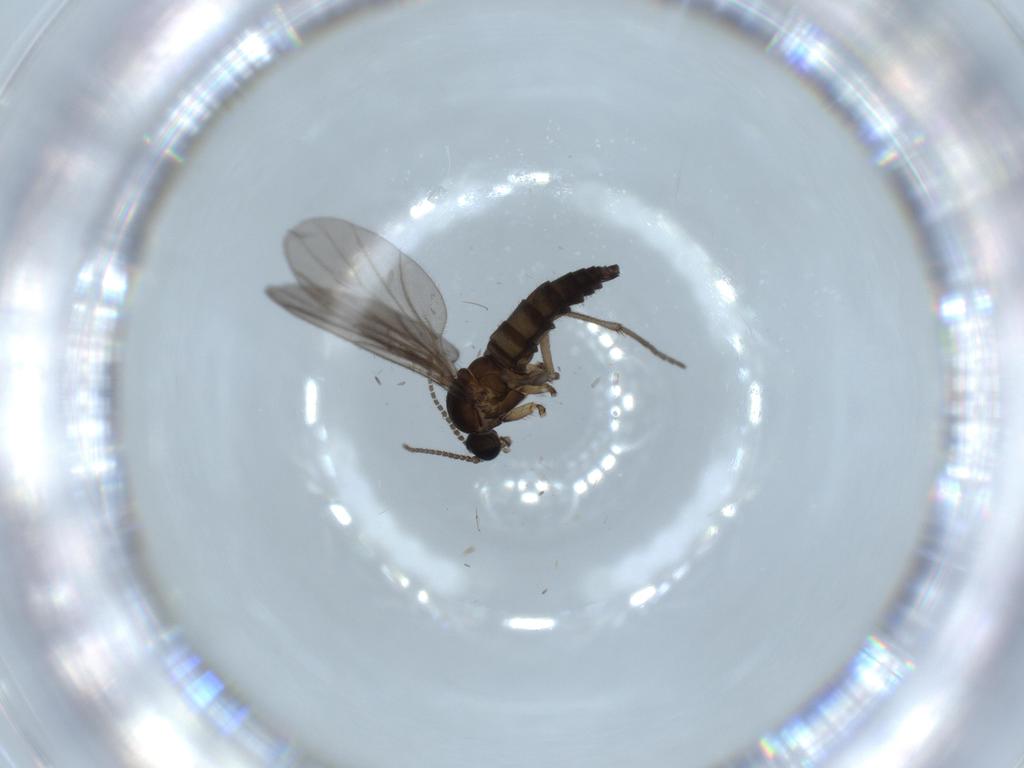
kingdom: Animalia
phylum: Arthropoda
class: Insecta
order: Diptera
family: Sciaridae
